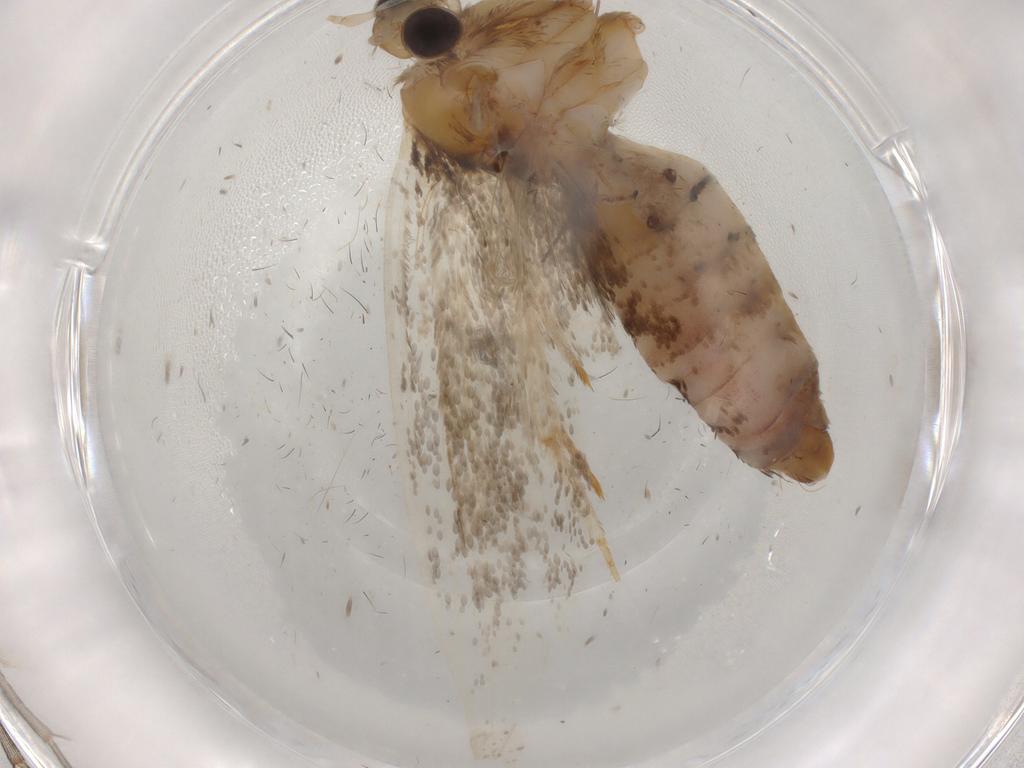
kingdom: Animalia
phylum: Arthropoda
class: Insecta
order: Lepidoptera
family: Tineidae
